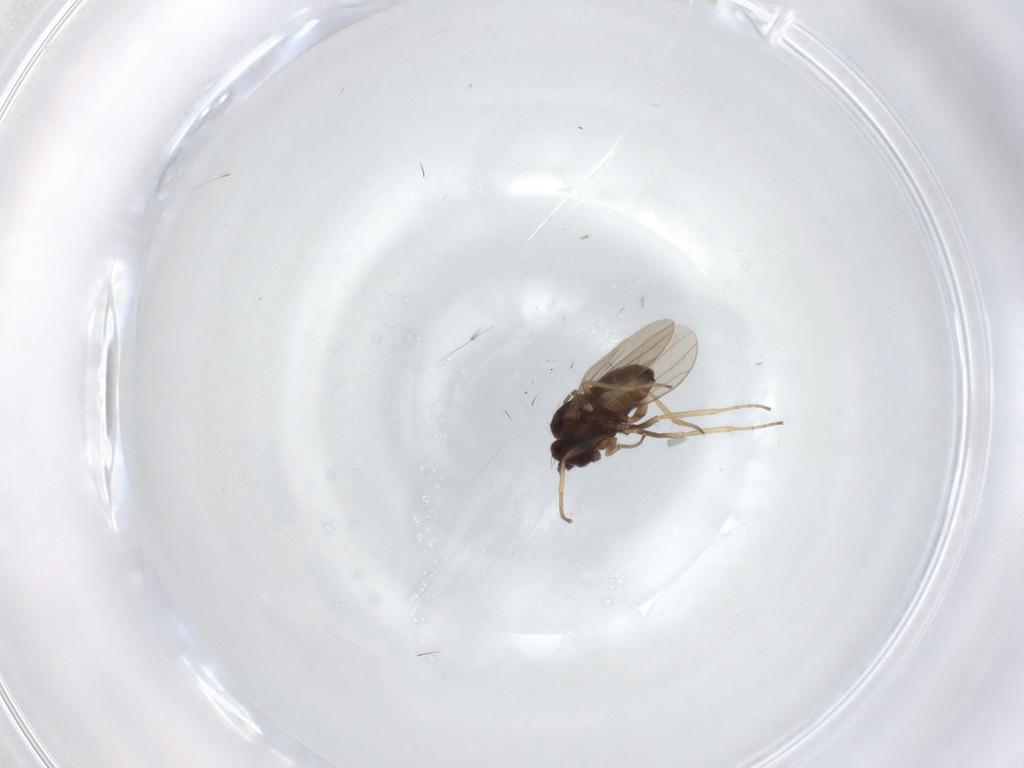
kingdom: Animalia
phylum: Arthropoda
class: Insecta
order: Diptera
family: Dolichopodidae
